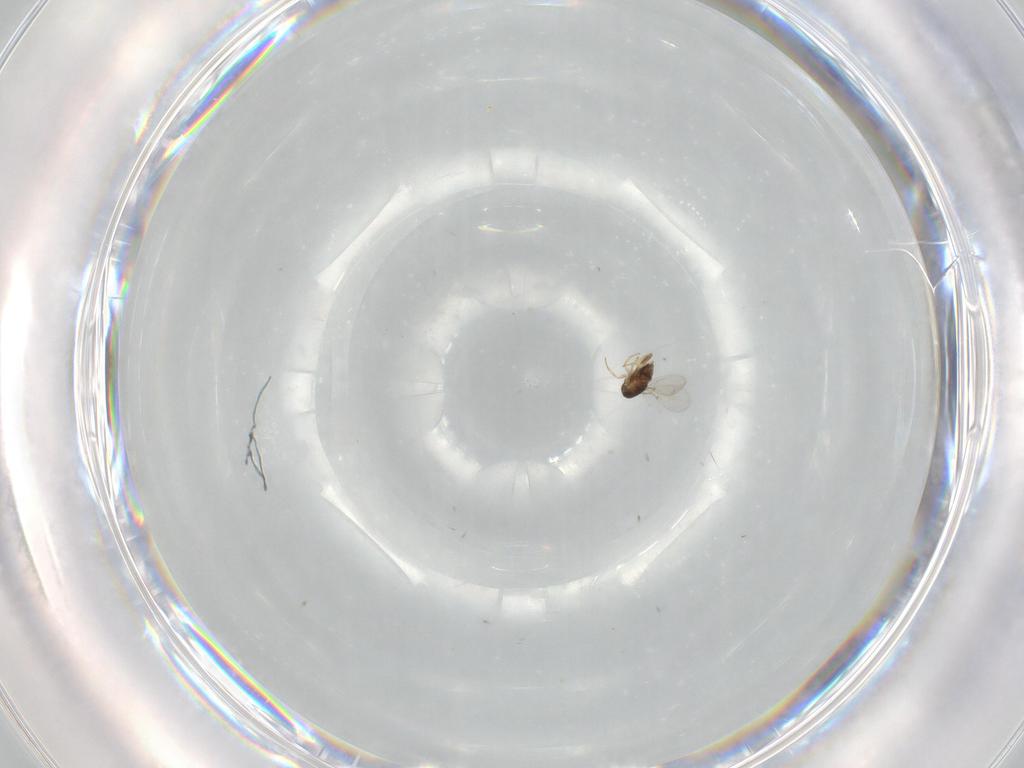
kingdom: Animalia
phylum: Arthropoda
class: Insecta
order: Hymenoptera
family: Encyrtidae
